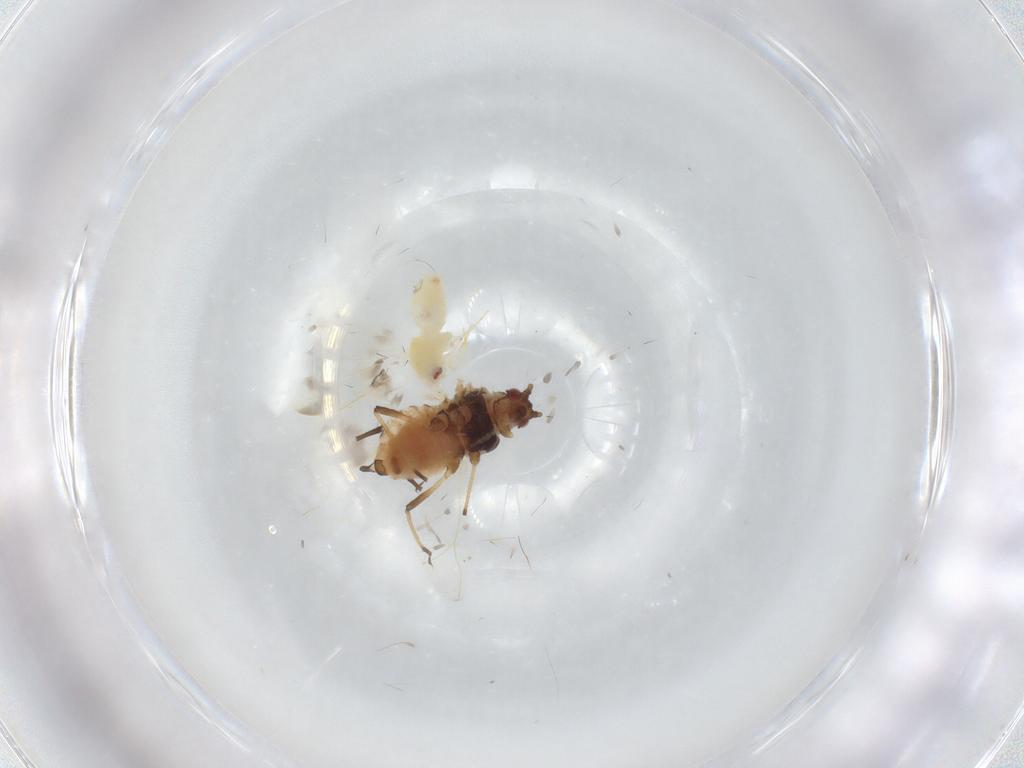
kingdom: Animalia
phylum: Arthropoda
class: Insecta
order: Hemiptera
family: Aphididae
